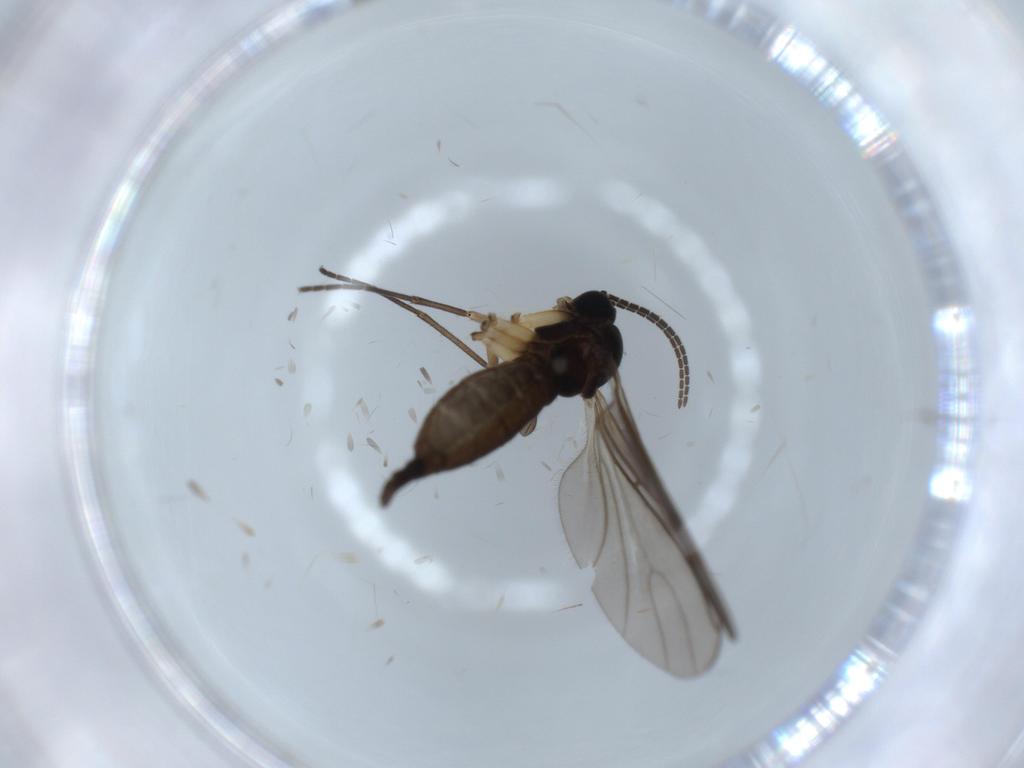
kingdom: Animalia
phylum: Arthropoda
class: Insecta
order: Diptera
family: Sciaridae
